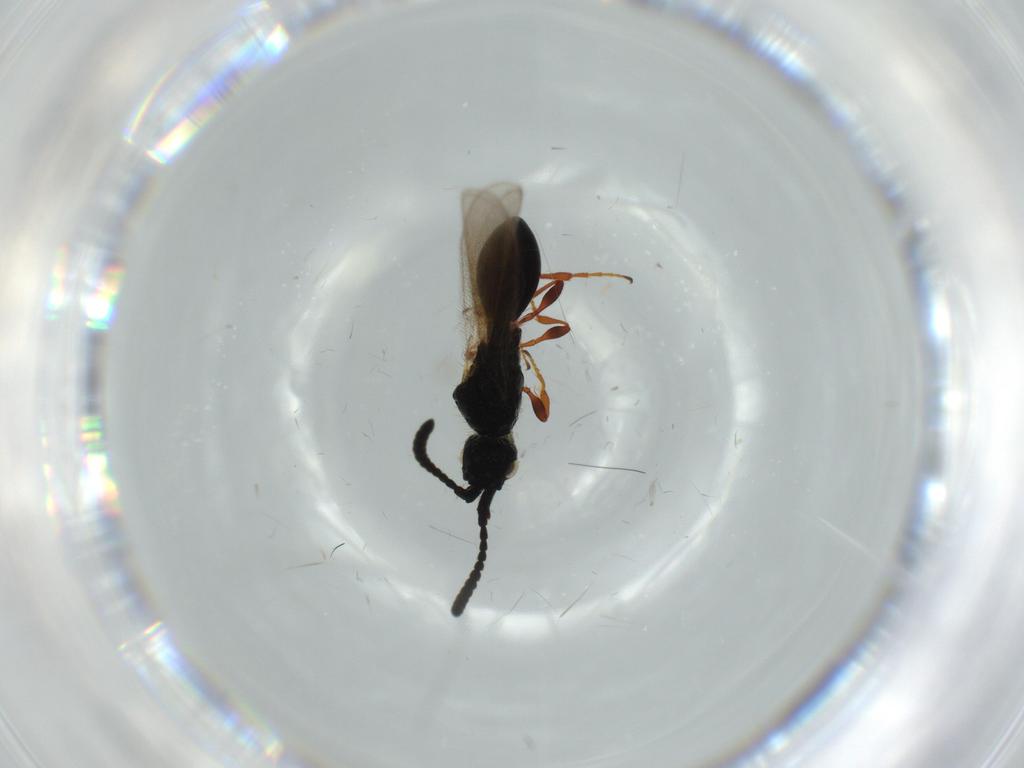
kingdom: Animalia
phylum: Arthropoda
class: Insecta
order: Hymenoptera
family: Diapriidae
